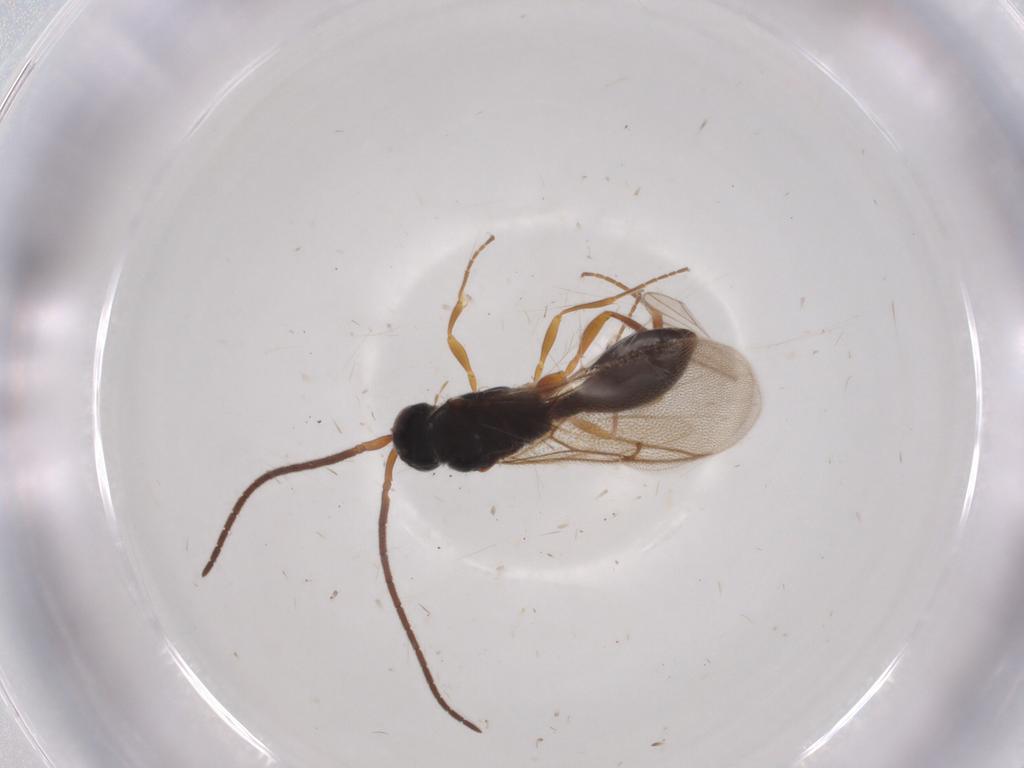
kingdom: Animalia
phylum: Arthropoda
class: Insecta
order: Hymenoptera
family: Diapriidae
